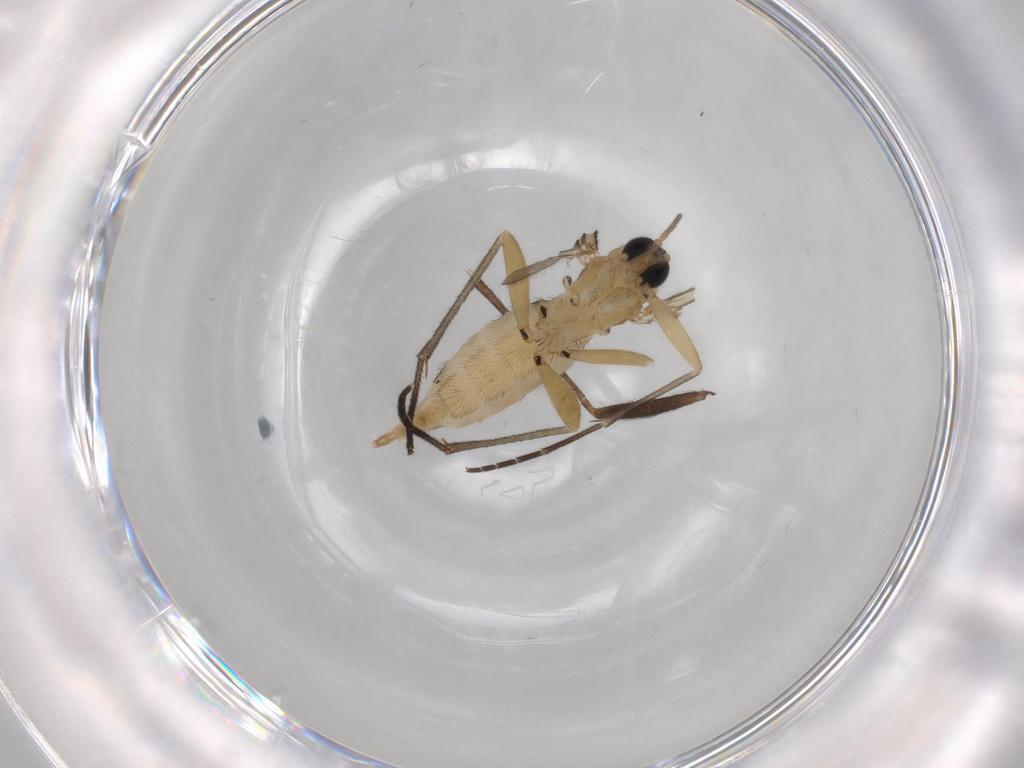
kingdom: Animalia
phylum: Arthropoda
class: Insecta
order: Diptera
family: Sciaridae
